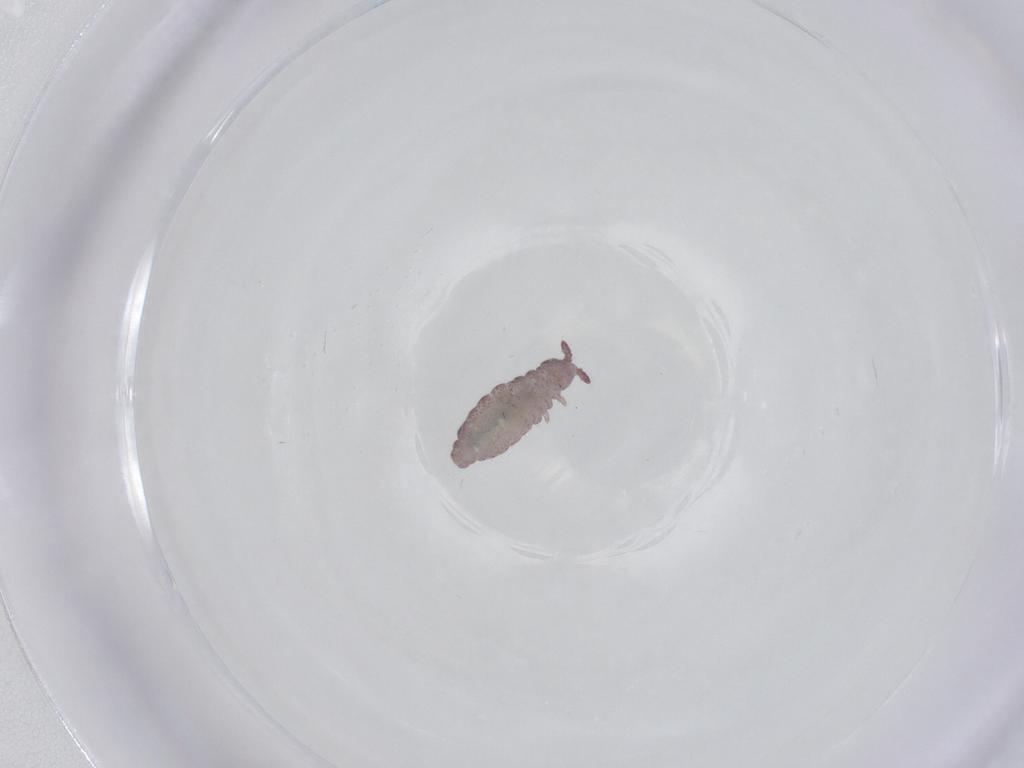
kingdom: Animalia
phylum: Arthropoda
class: Collembola
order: Poduromorpha
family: Hypogastruridae
